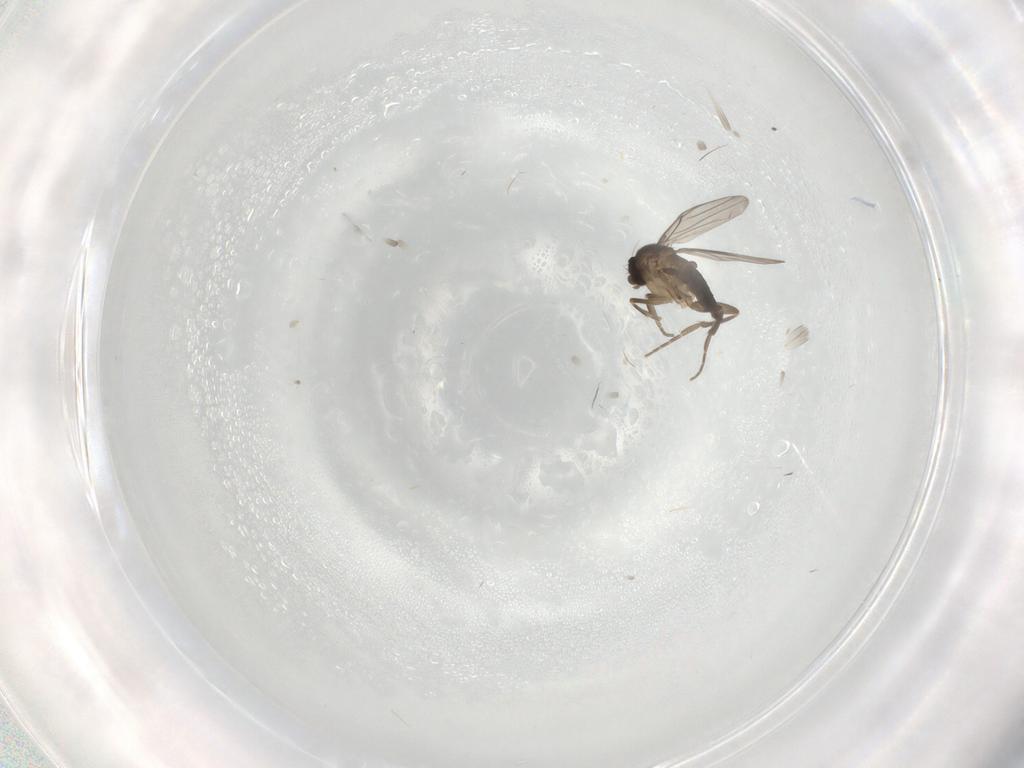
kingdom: Animalia
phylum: Arthropoda
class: Insecta
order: Diptera
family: Phoridae
